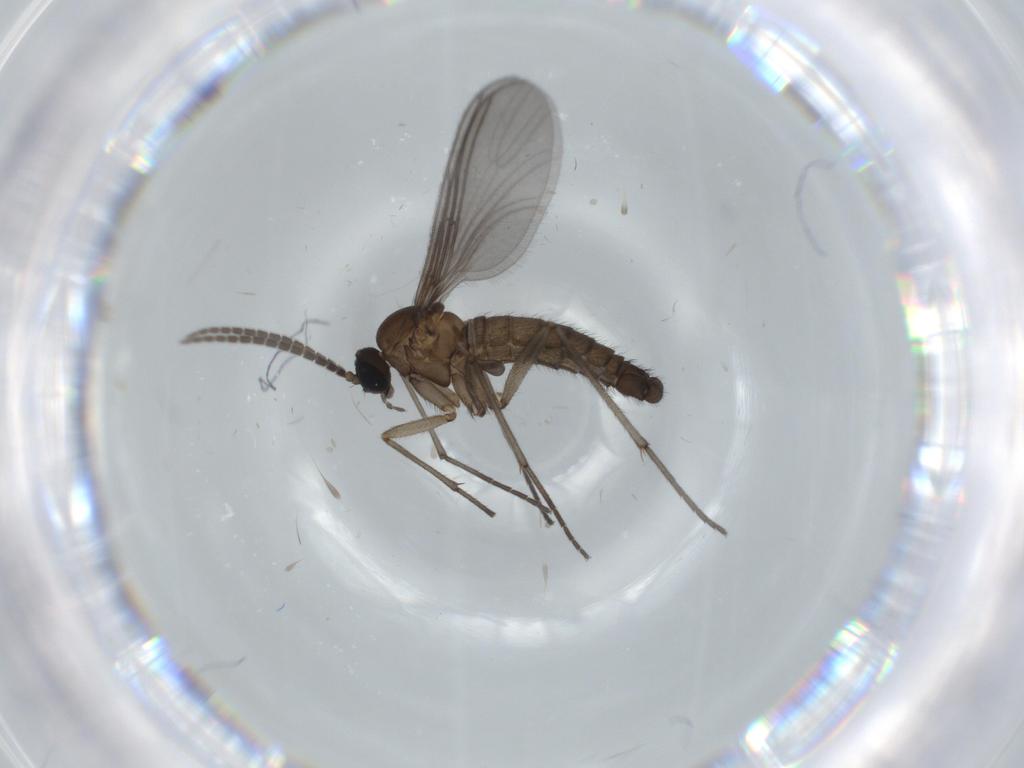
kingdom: Animalia
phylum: Arthropoda
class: Insecta
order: Diptera
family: Sciaridae
